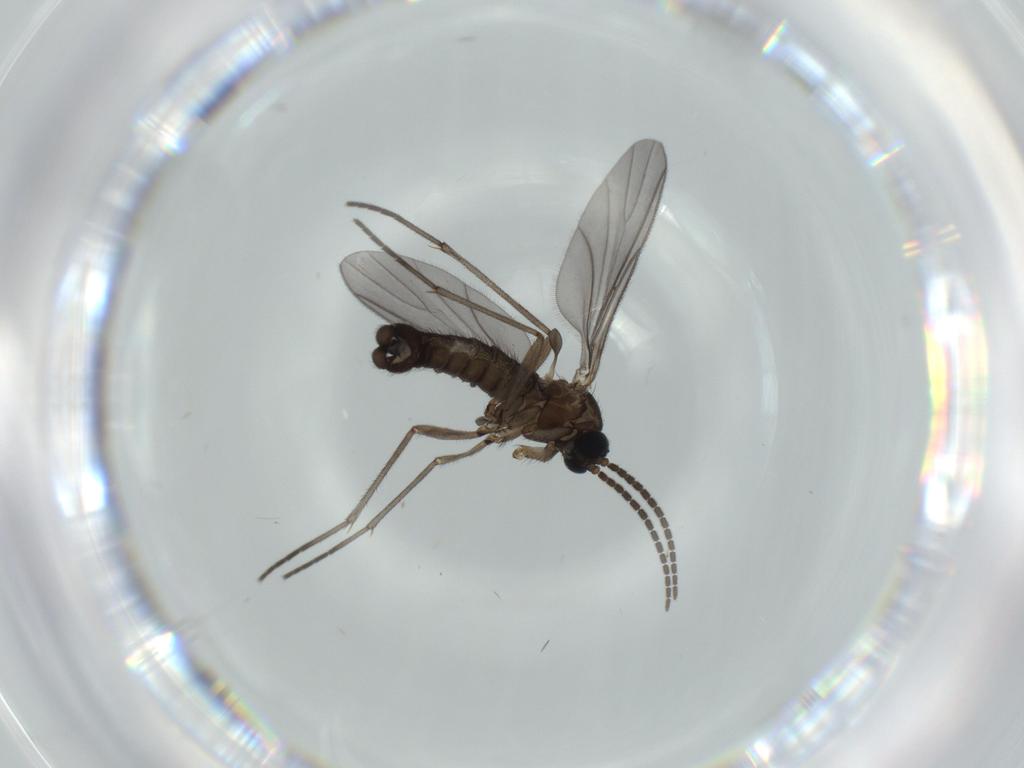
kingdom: Animalia
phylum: Arthropoda
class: Insecta
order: Diptera
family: Sciaridae
